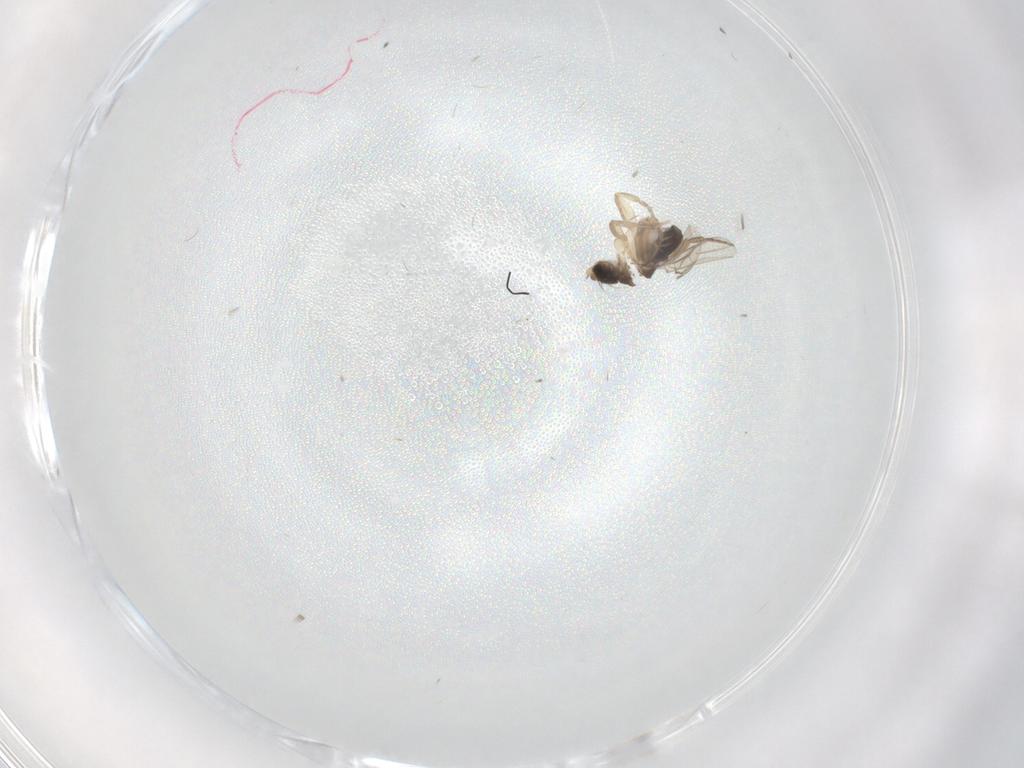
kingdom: Animalia
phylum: Arthropoda
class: Insecta
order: Diptera
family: Phoridae
